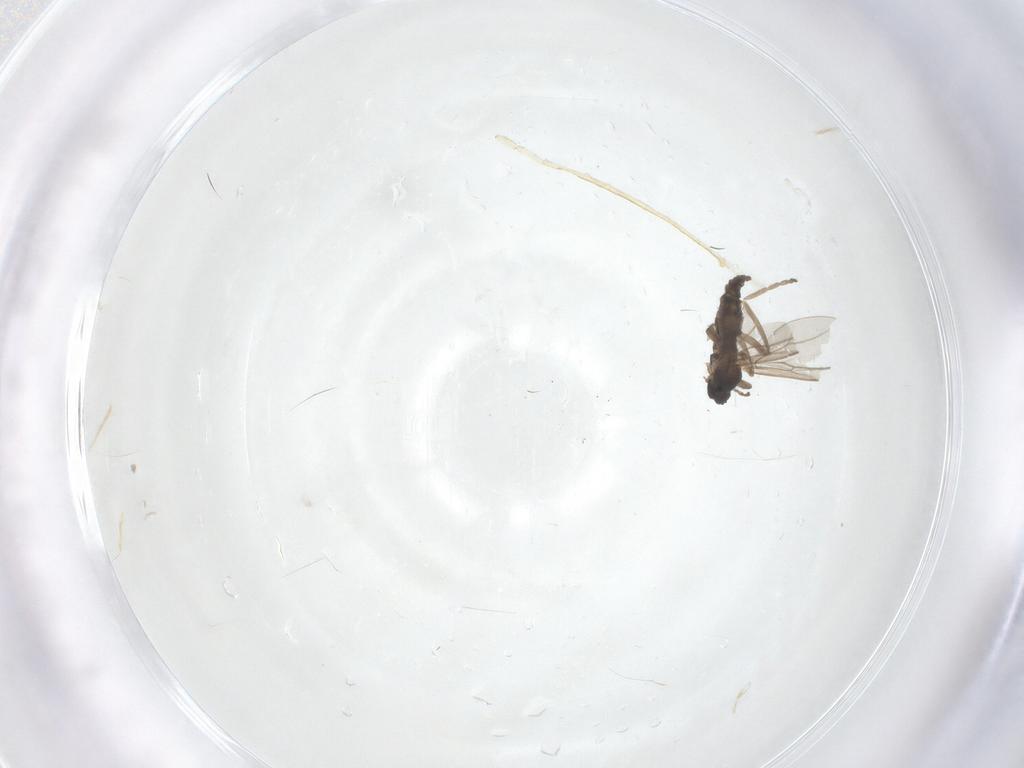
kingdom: Animalia
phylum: Arthropoda
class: Insecta
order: Diptera
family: Cecidomyiidae
